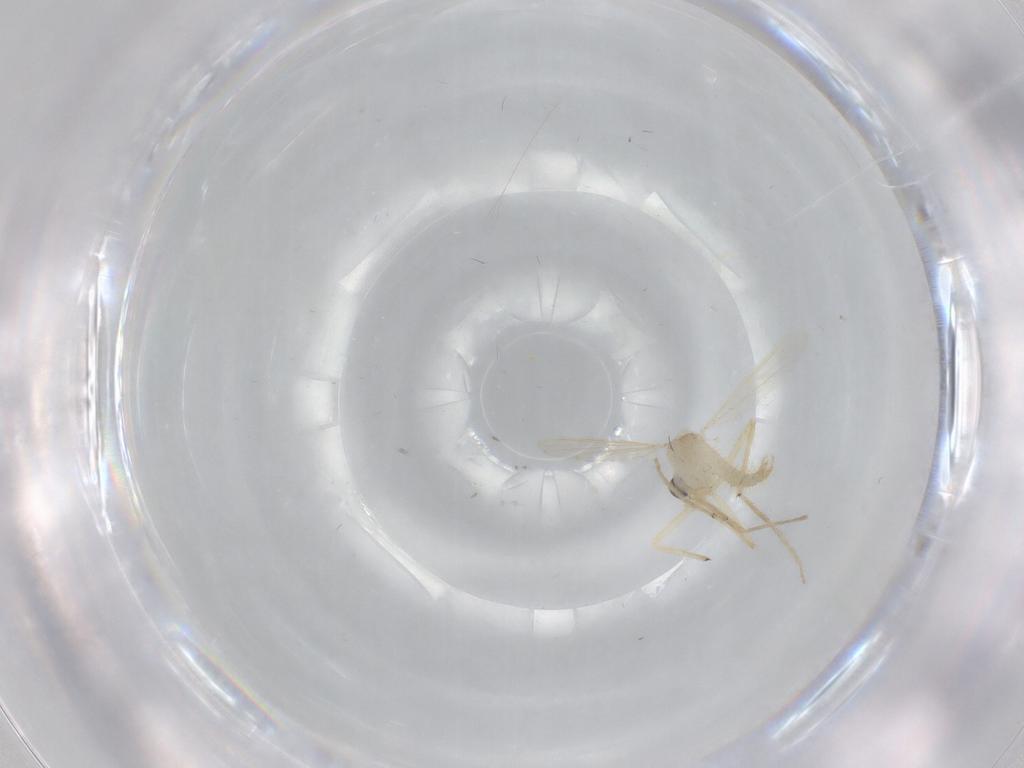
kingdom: Animalia
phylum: Arthropoda
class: Insecta
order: Diptera
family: Chironomidae
